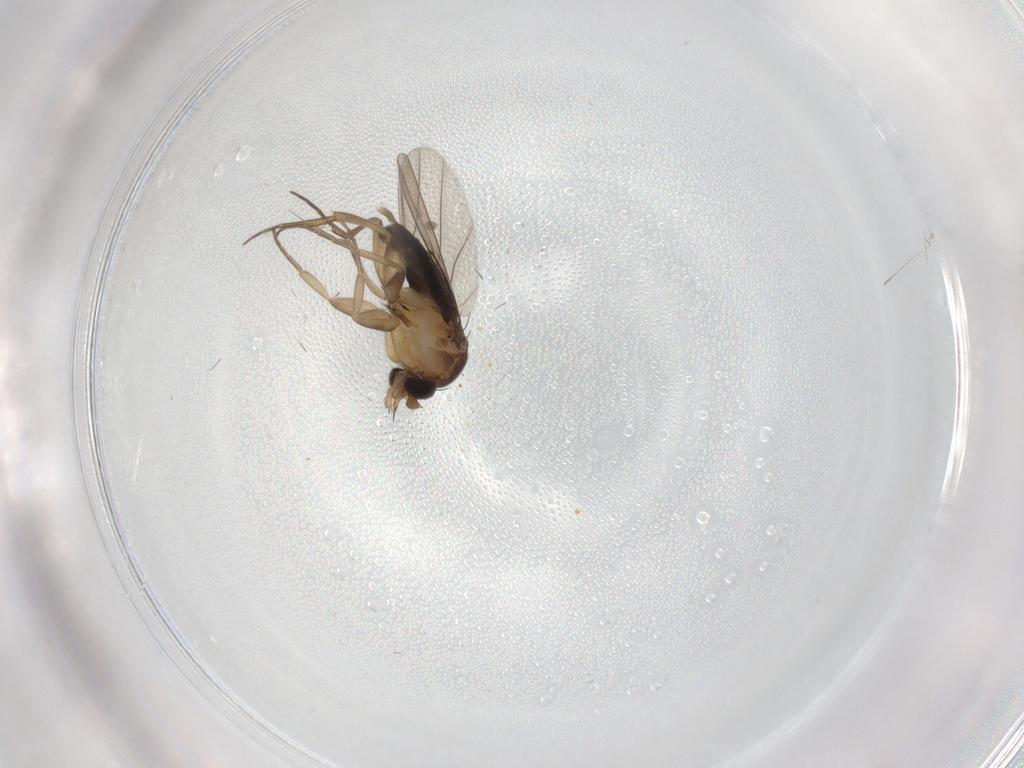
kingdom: Animalia
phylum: Arthropoda
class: Insecta
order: Diptera
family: Phoridae
